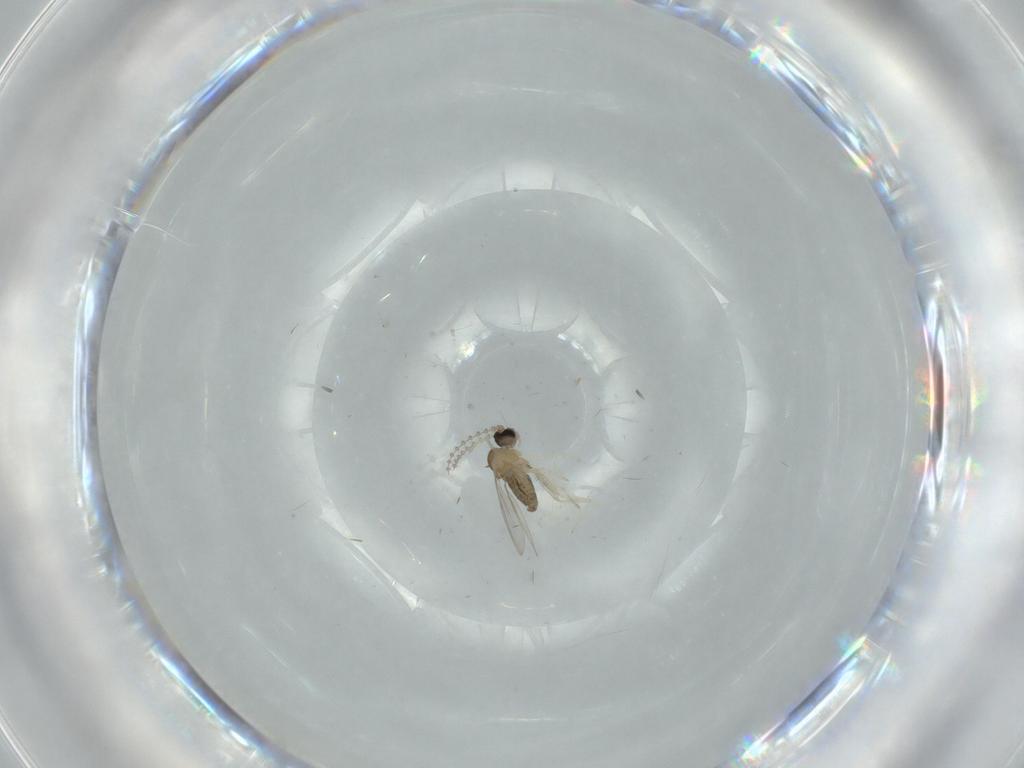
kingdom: Animalia
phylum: Arthropoda
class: Insecta
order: Diptera
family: Cecidomyiidae
